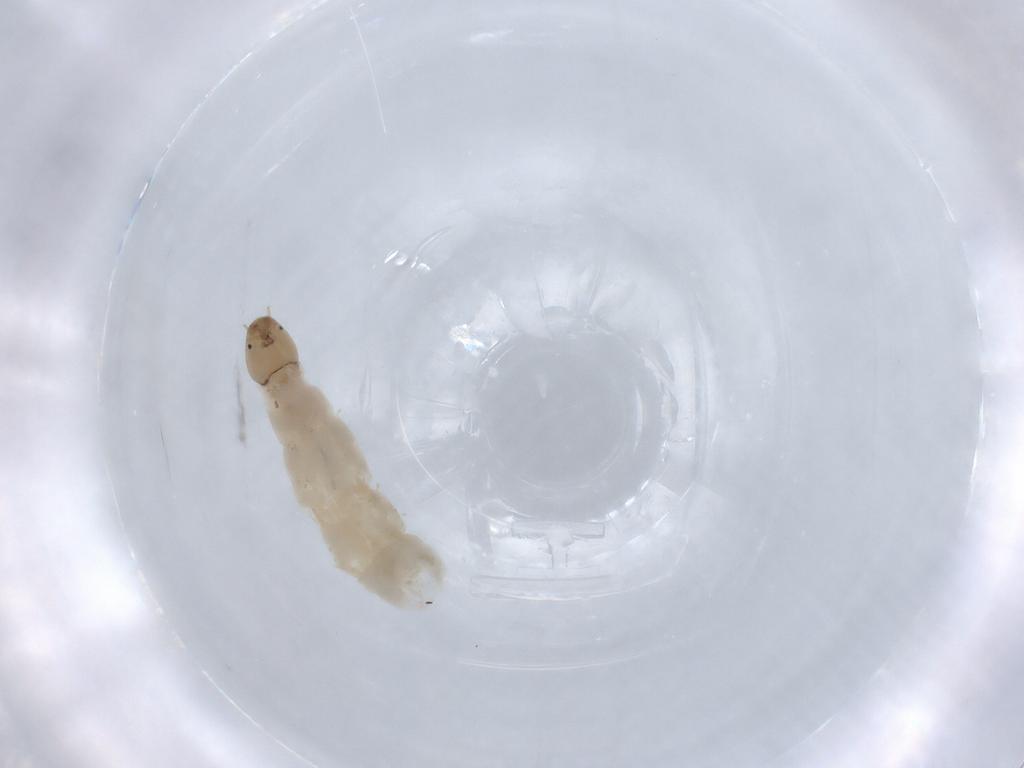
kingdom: Animalia
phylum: Arthropoda
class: Insecta
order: Diptera
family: Chironomidae
